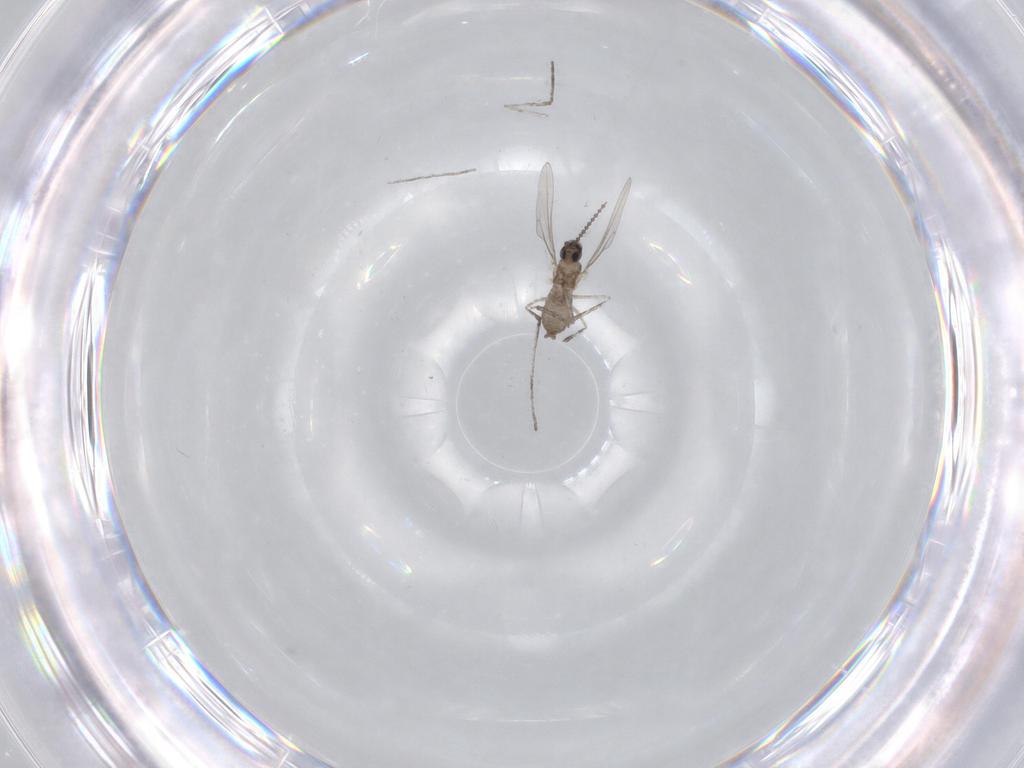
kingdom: Animalia
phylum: Arthropoda
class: Insecta
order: Diptera
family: Cecidomyiidae
